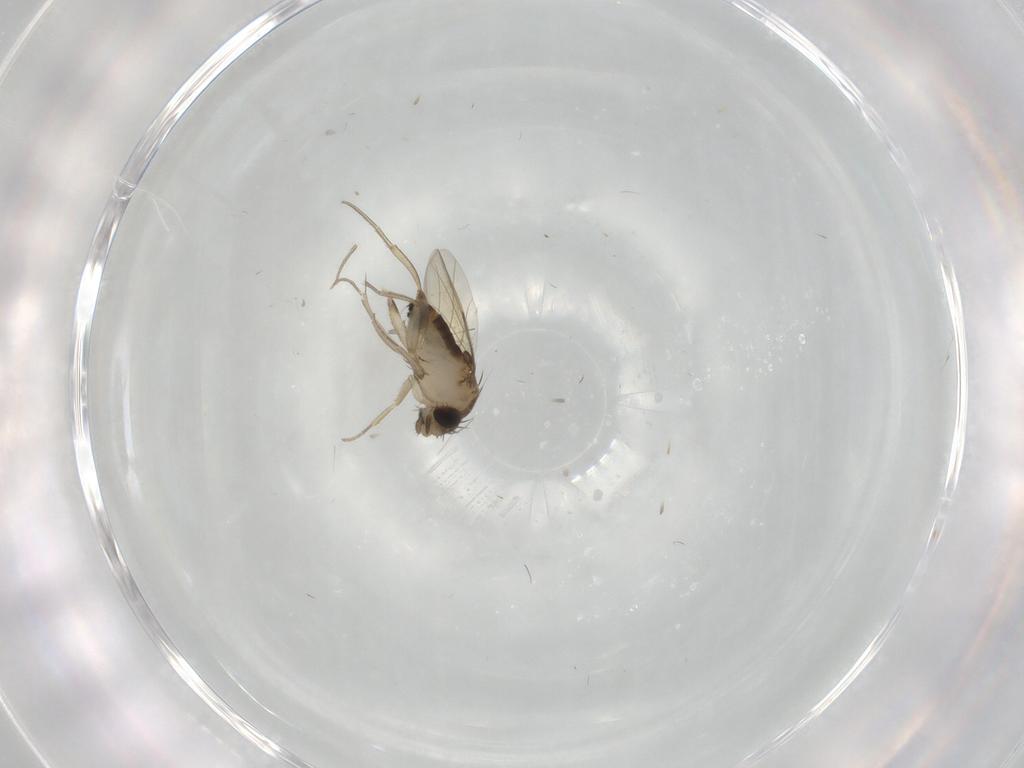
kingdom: Animalia
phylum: Arthropoda
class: Insecta
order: Diptera
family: Phoridae
